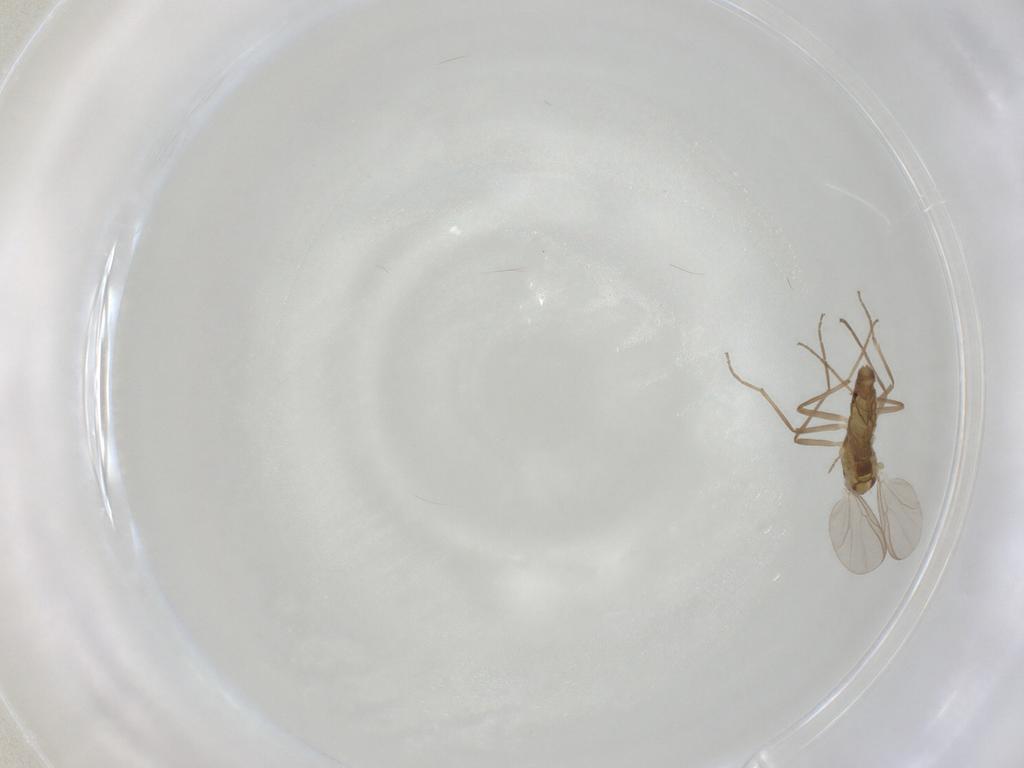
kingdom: Animalia
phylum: Arthropoda
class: Insecta
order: Diptera
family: Chironomidae
